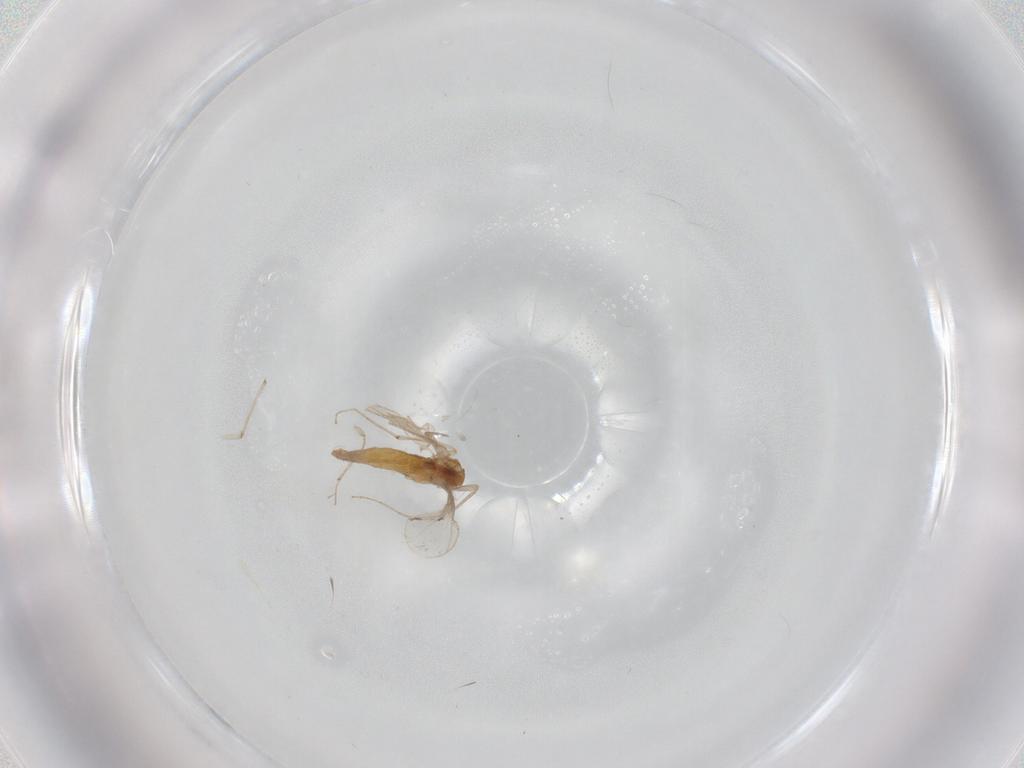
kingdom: Animalia
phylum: Arthropoda
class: Insecta
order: Diptera
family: Chironomidae
